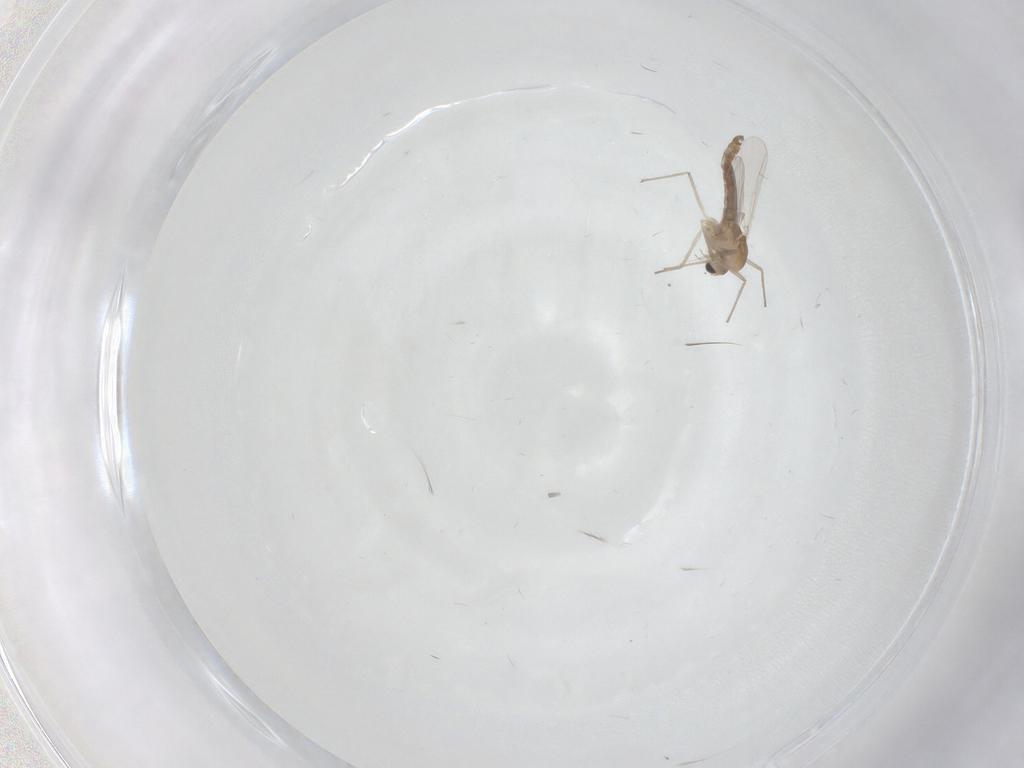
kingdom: Animalia
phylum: Arthropoda
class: Insecta
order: Diptera
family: Chironomidae
